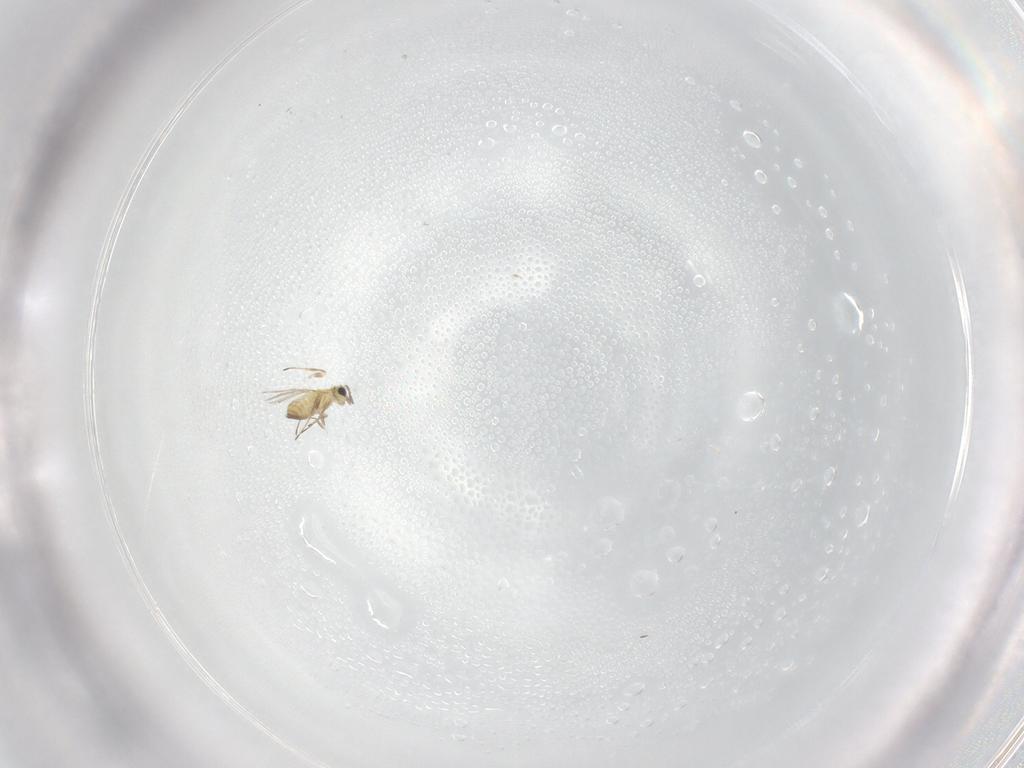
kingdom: Animalia
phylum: Arthropoda
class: Insecta
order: Hymenoptera
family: Trichogrammatidae
